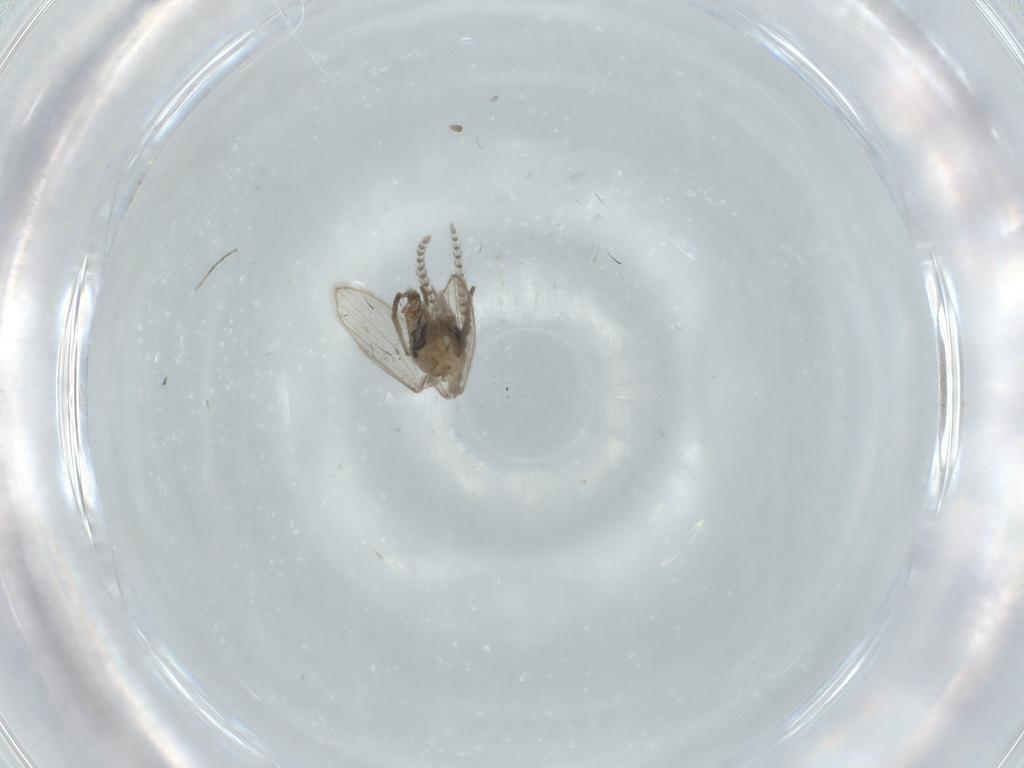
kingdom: Animalia
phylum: Arthropoda
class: Insecta
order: Diptera
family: Psychodidae
